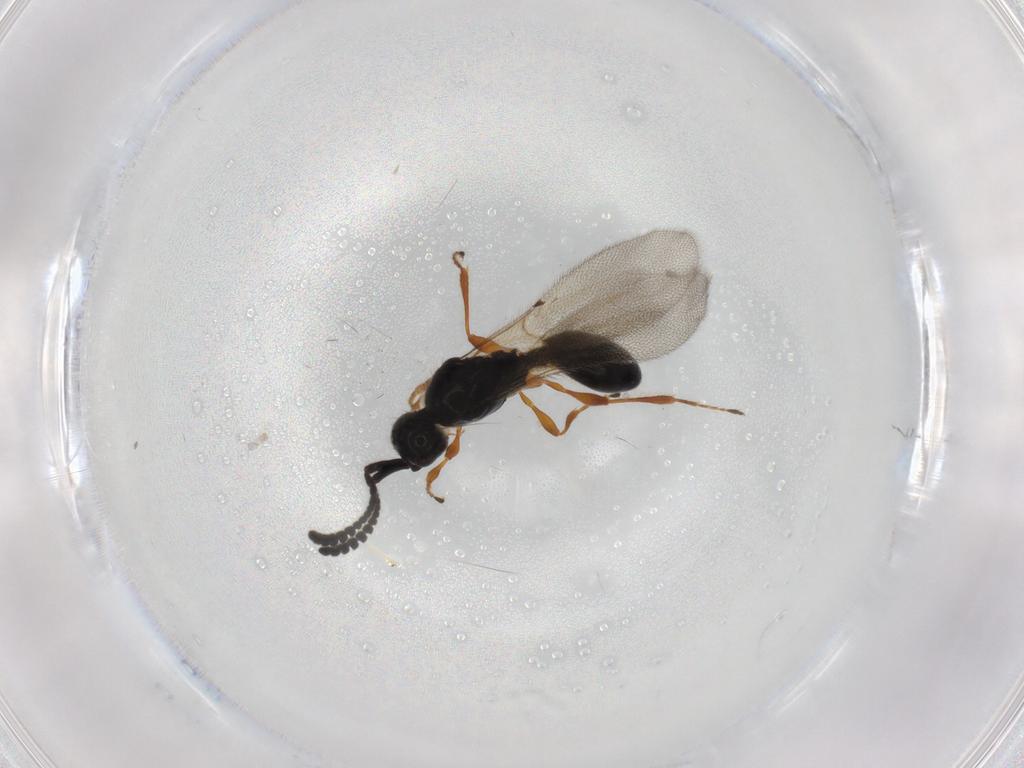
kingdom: Animalia
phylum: Arthropoda
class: Insecta
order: Hymenoptera
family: Diapriidae
